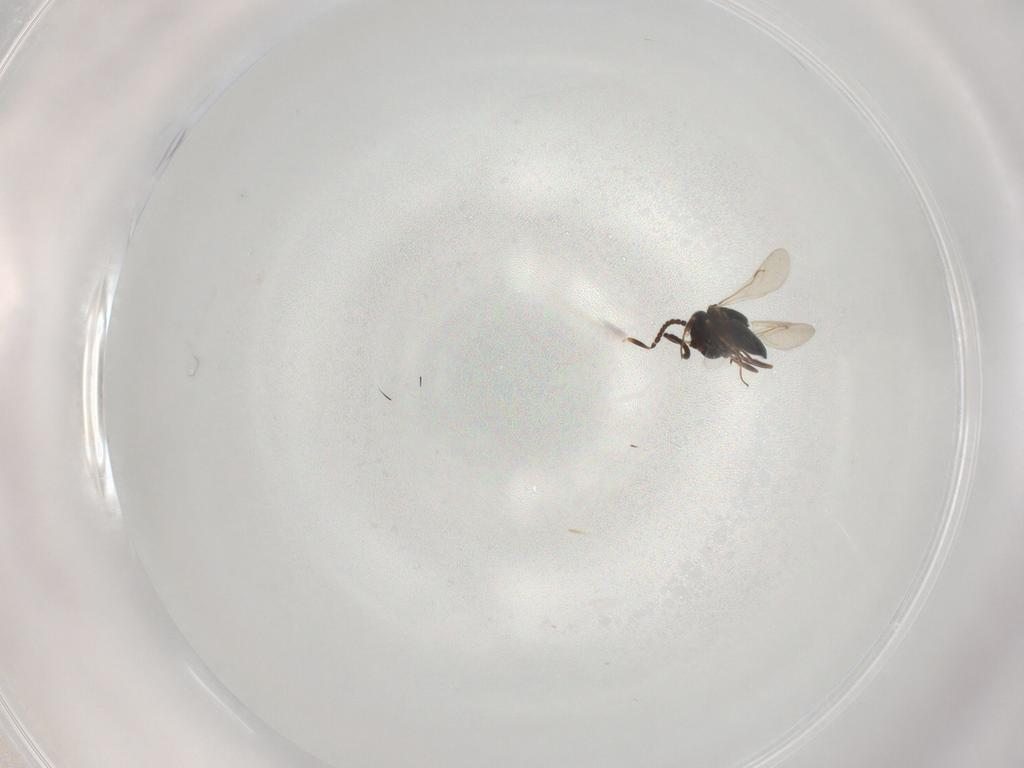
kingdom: Animalia
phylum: Arthropoda
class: Insecta
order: Hymenoptera
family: Scelionidae
